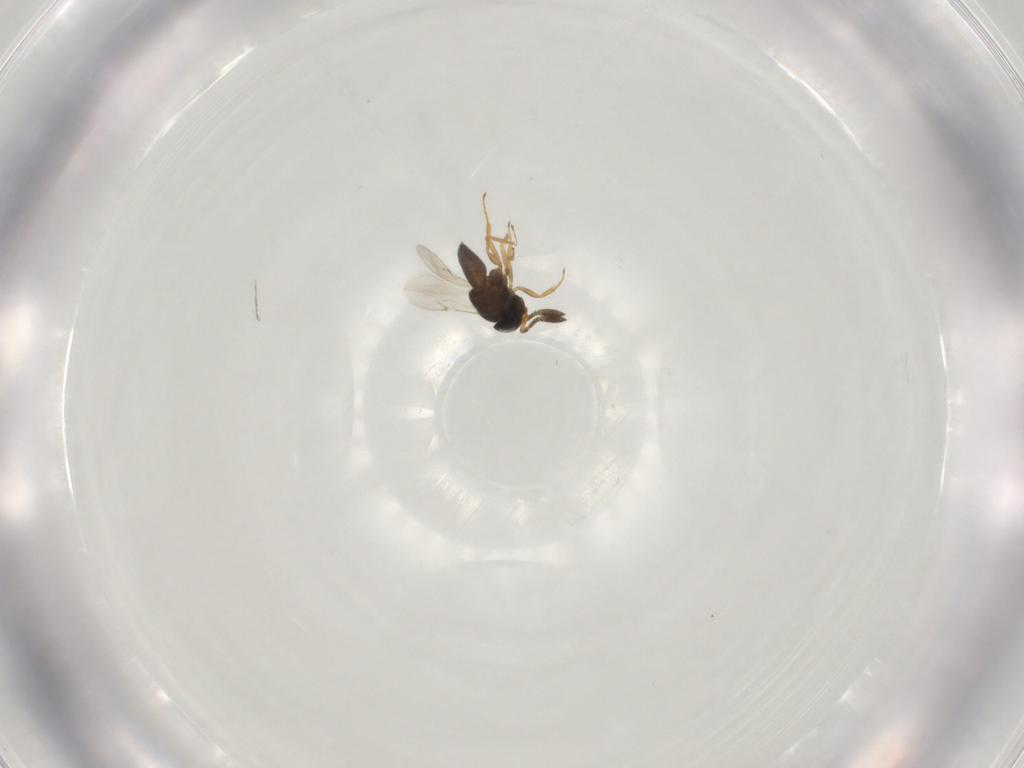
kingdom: Animalia
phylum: Arthropoda
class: Insecta
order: Hymenoptera
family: Scelionidae
